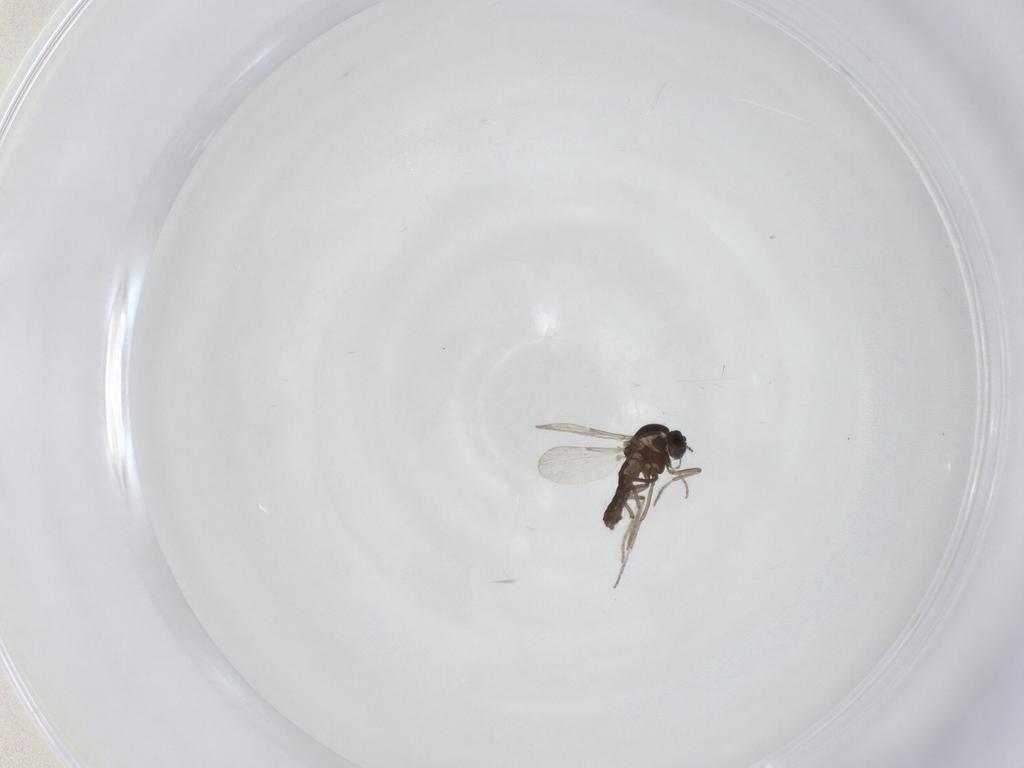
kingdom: Animalia
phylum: Arthropoda
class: Insecta
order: Diptera
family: Ceratopogonidae
